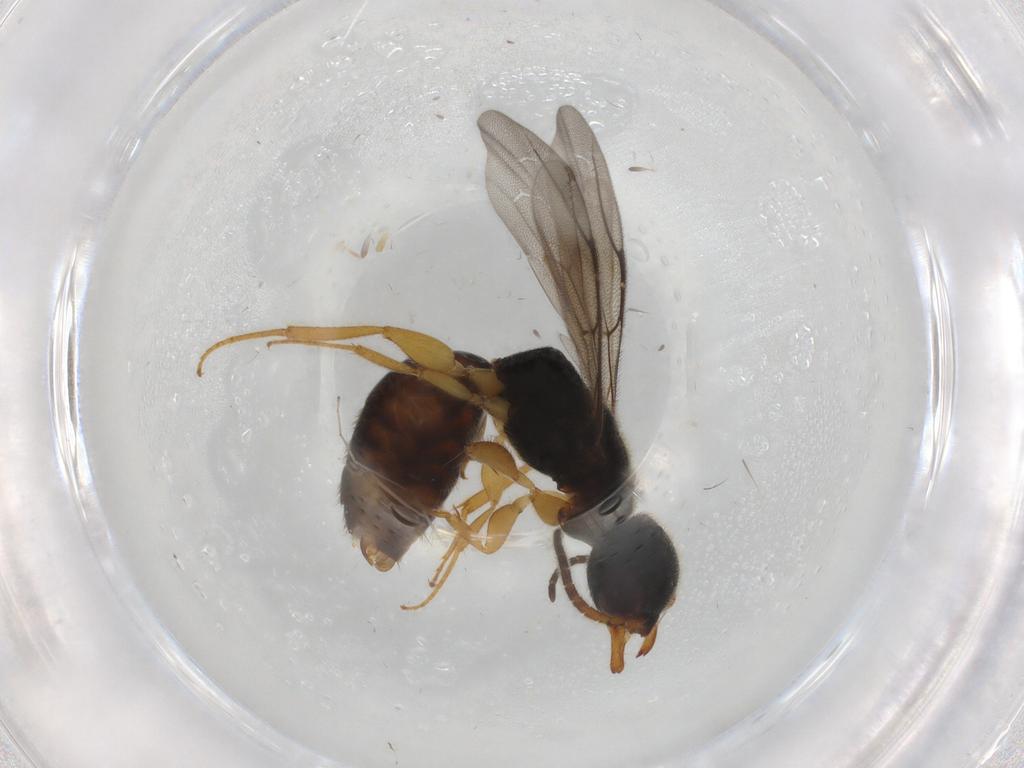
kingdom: Animalia
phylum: Arthropoda
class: Insecta
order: Hymenoptera
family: Bethylidae
